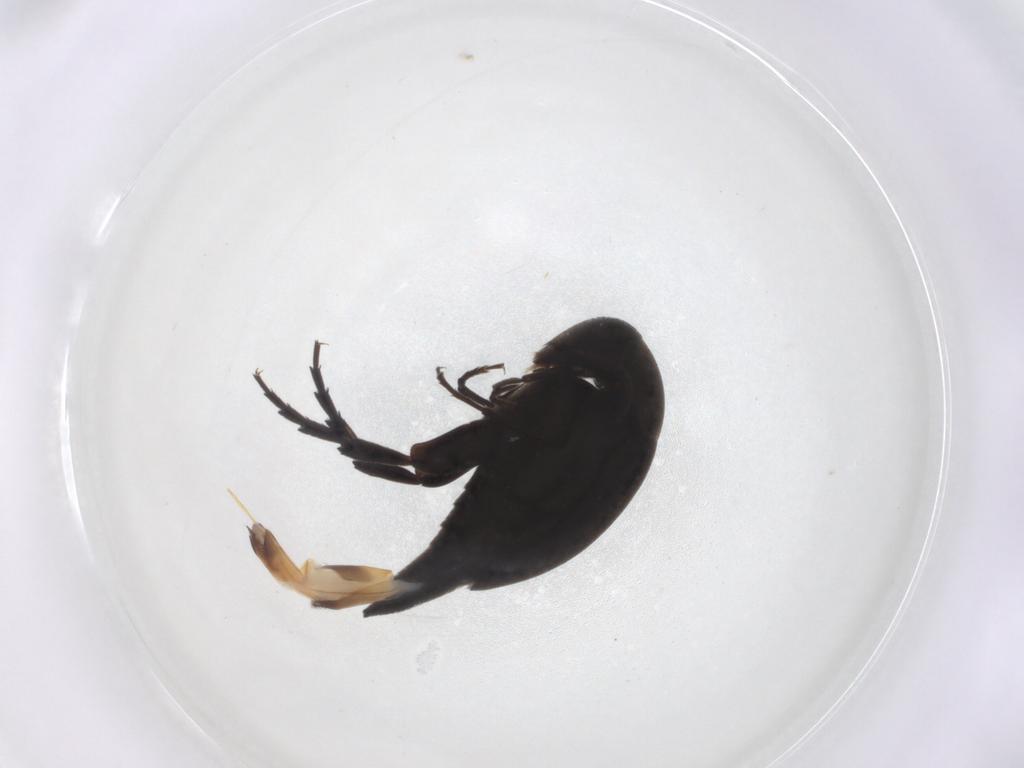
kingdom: Animalia
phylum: Arthropoda
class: Insecta
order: Coleoptera
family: Mordellidae
